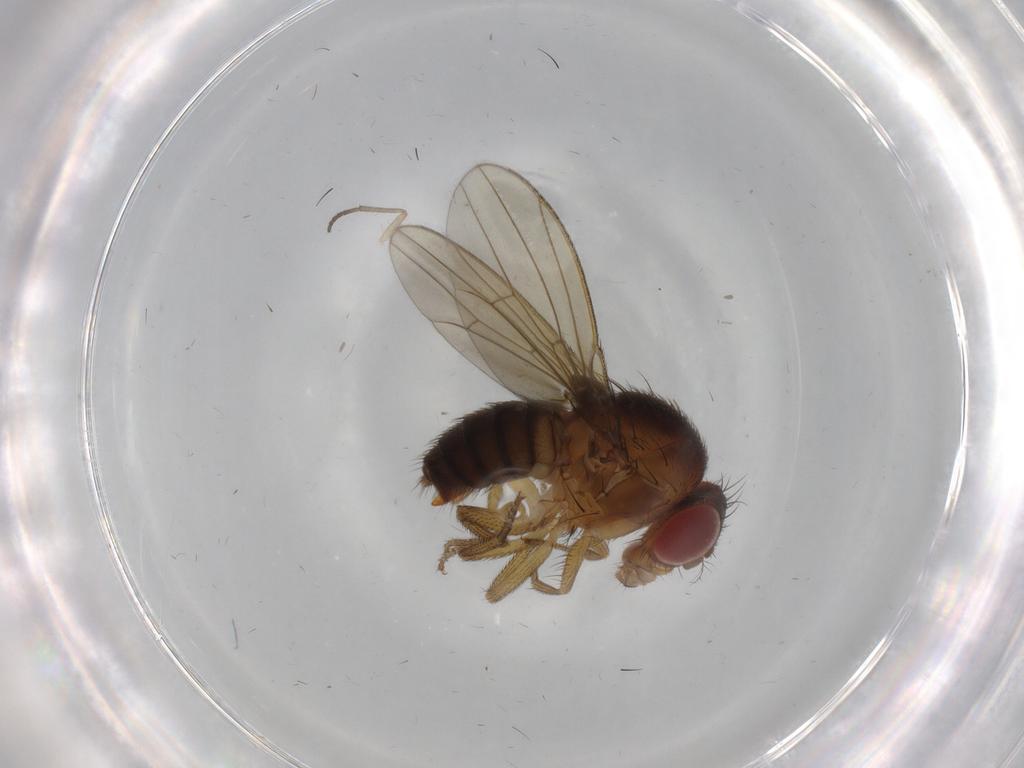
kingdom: Animalia
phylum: Arthropoda
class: Insecta
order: Diptera
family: Drosophilidae
